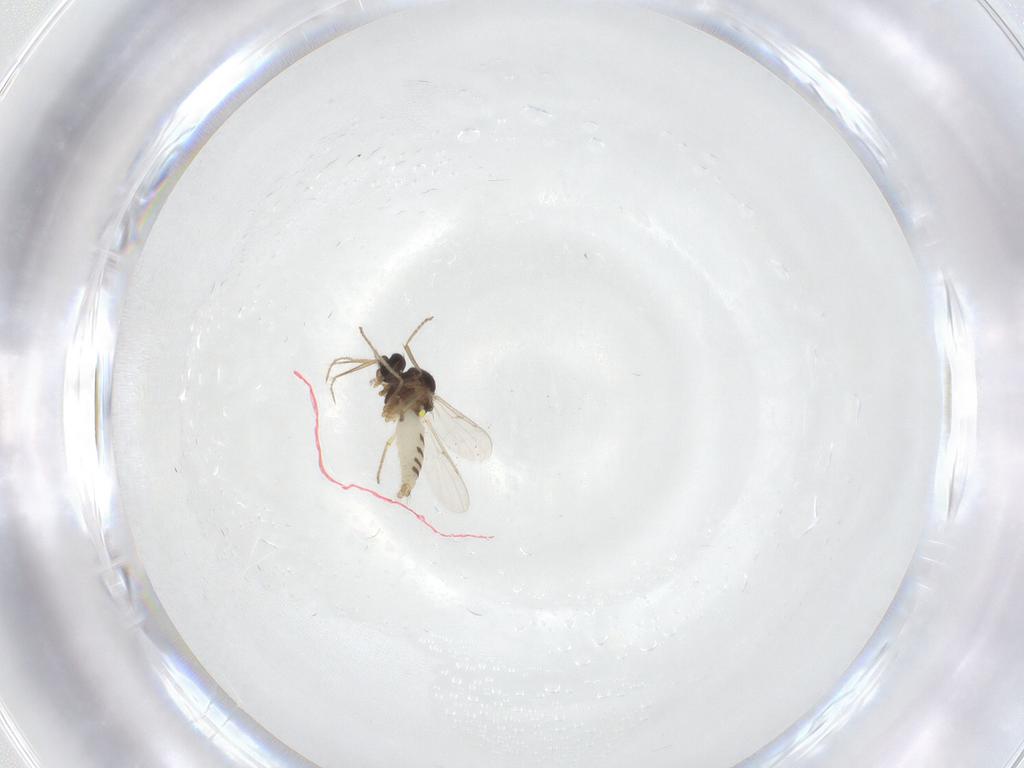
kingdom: Animalia
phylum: Arthropoda
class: Insecta
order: Diptera
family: Ceratopogonidae
